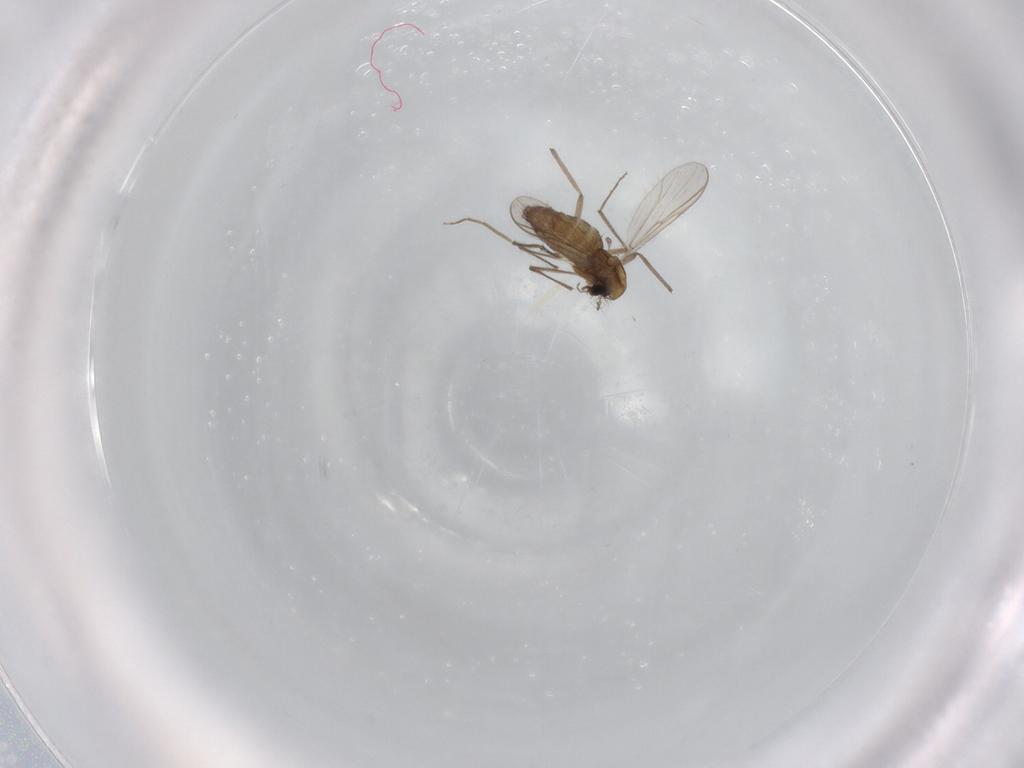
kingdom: Animalia
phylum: Arthropoda
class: Insecta
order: Diptera
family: Chironomidae
